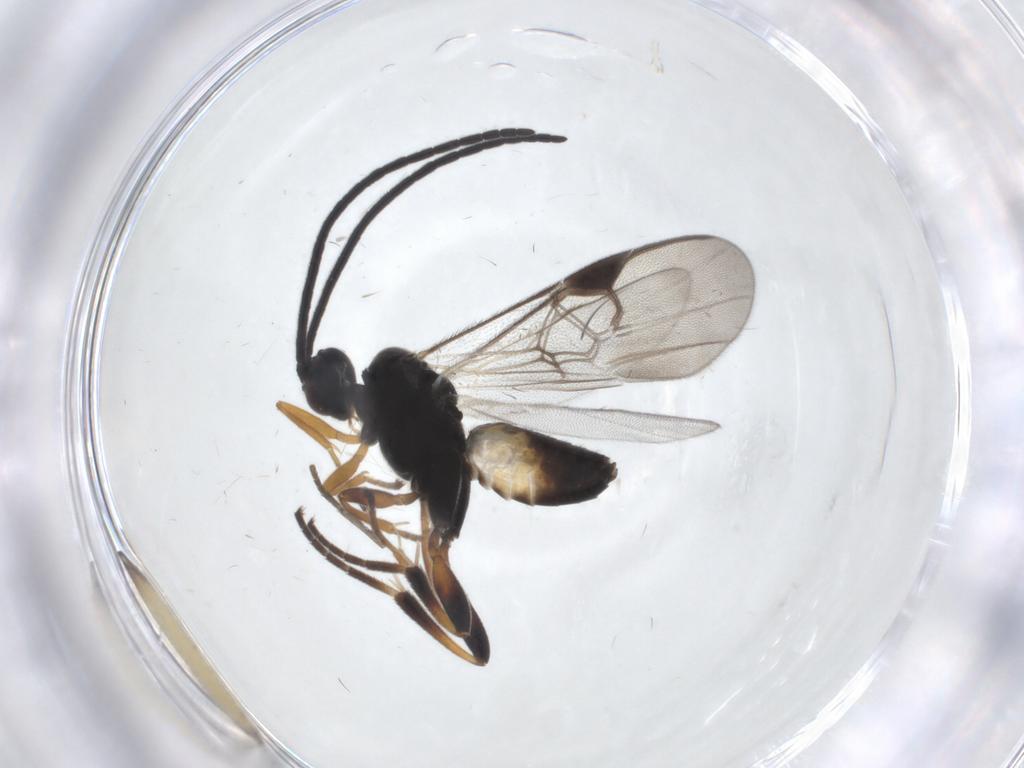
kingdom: Animalia
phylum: Arthropoda
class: Insecta
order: Hymenoptera
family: Braconidae
